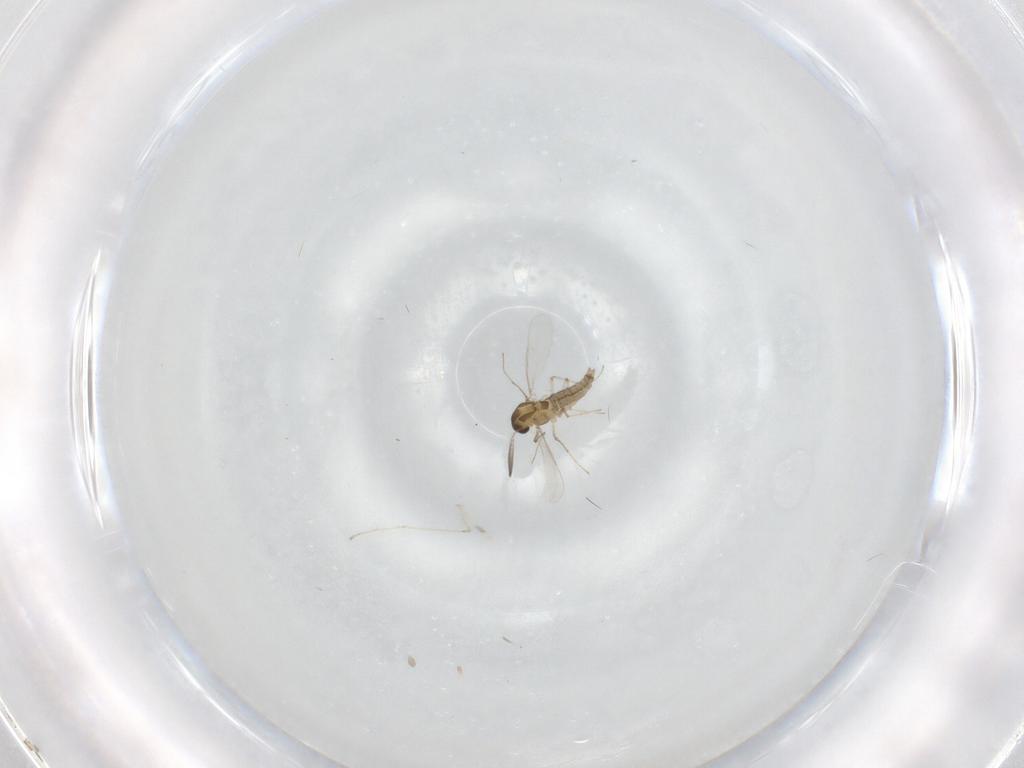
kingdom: Animalia
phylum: Arthropoda
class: Insecta
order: Diptera
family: Chironomidae
